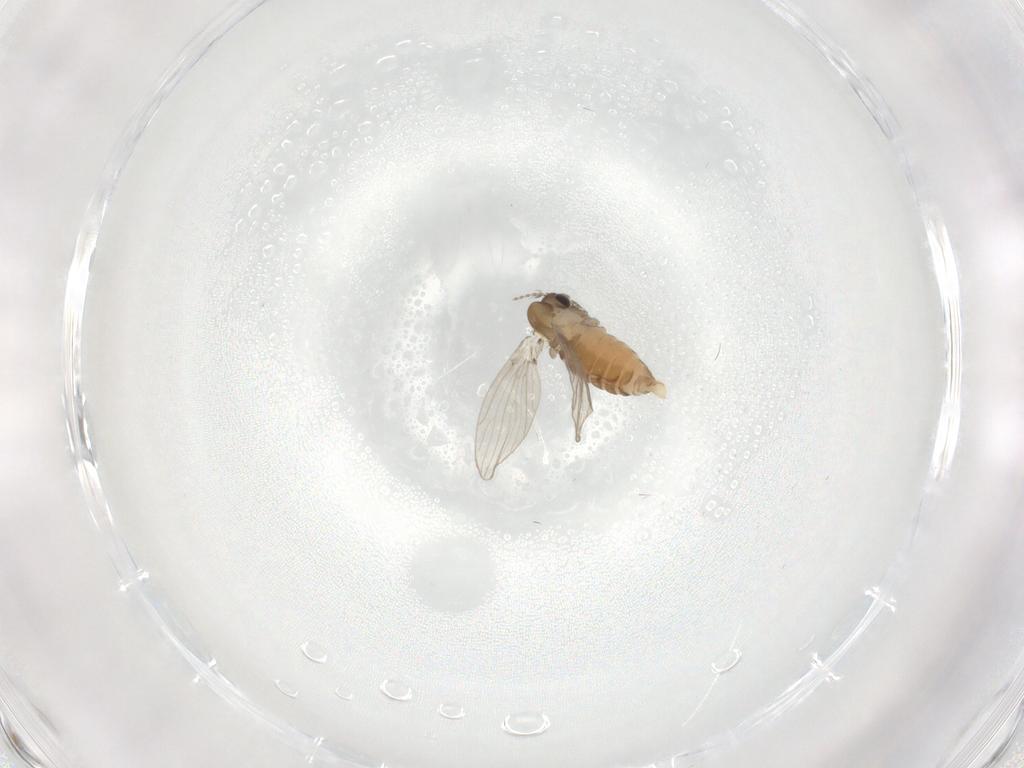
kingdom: Animalia
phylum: Arthropoda
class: Insecta
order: Diptera
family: Psychodidae
